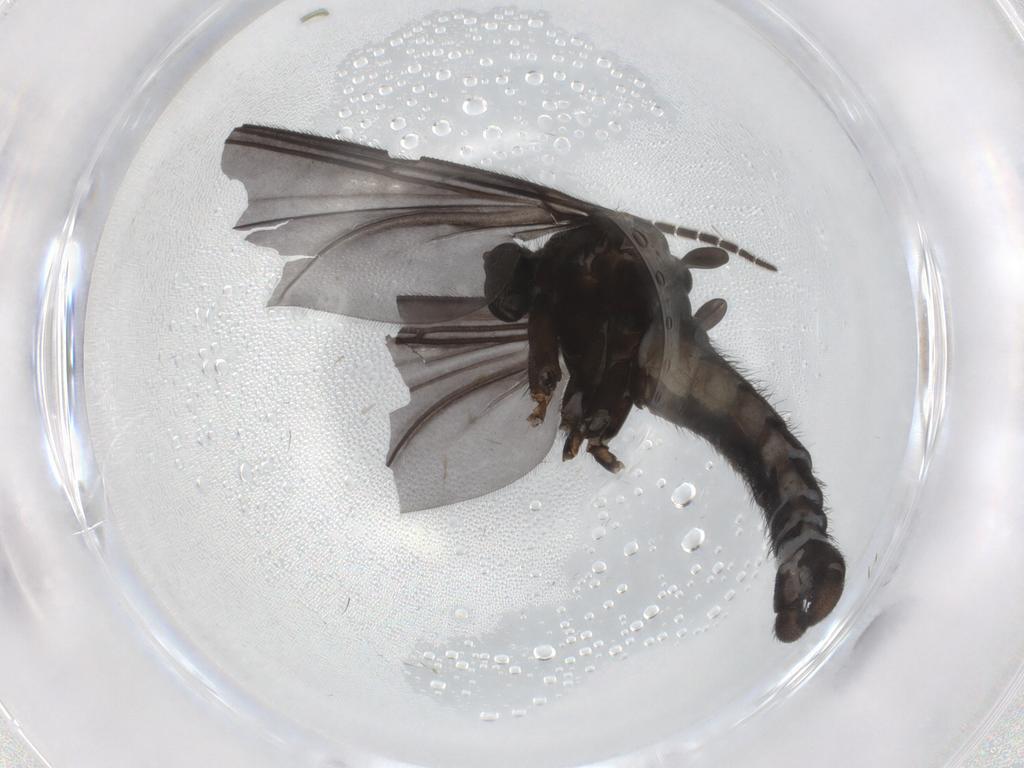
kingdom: Animalia
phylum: Arthropoda
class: Insecta
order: Diptera
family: Sciaridae
